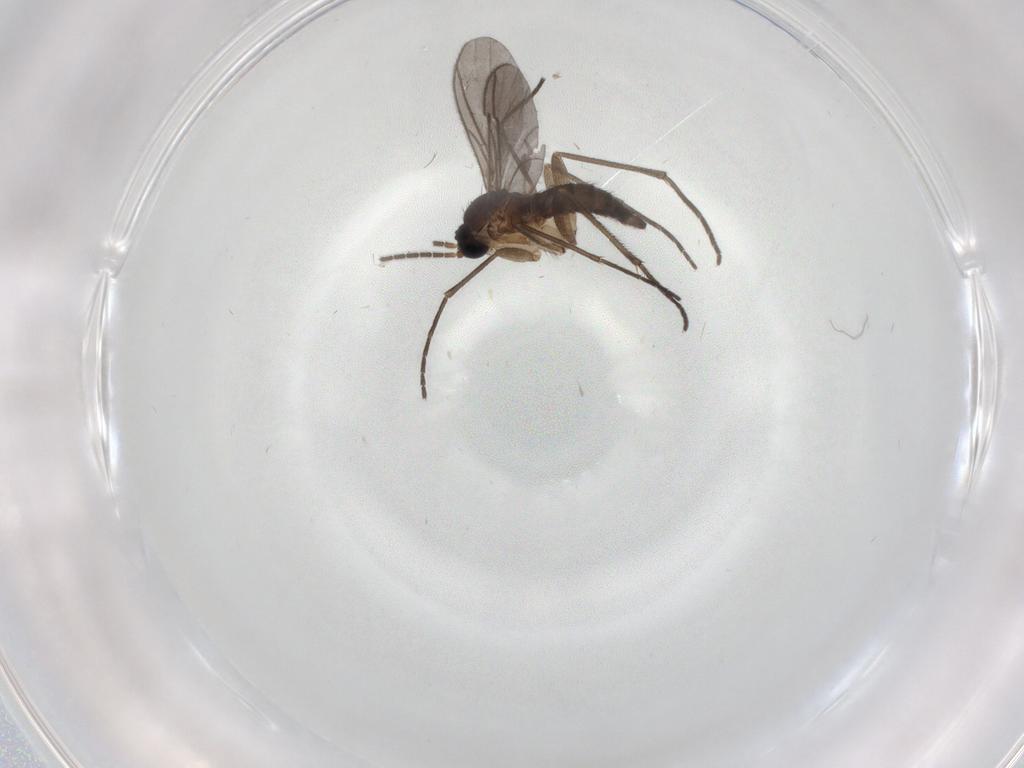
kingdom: Animalia
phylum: Arthropoda
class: Insecta
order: Diptera
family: Sciaridae
